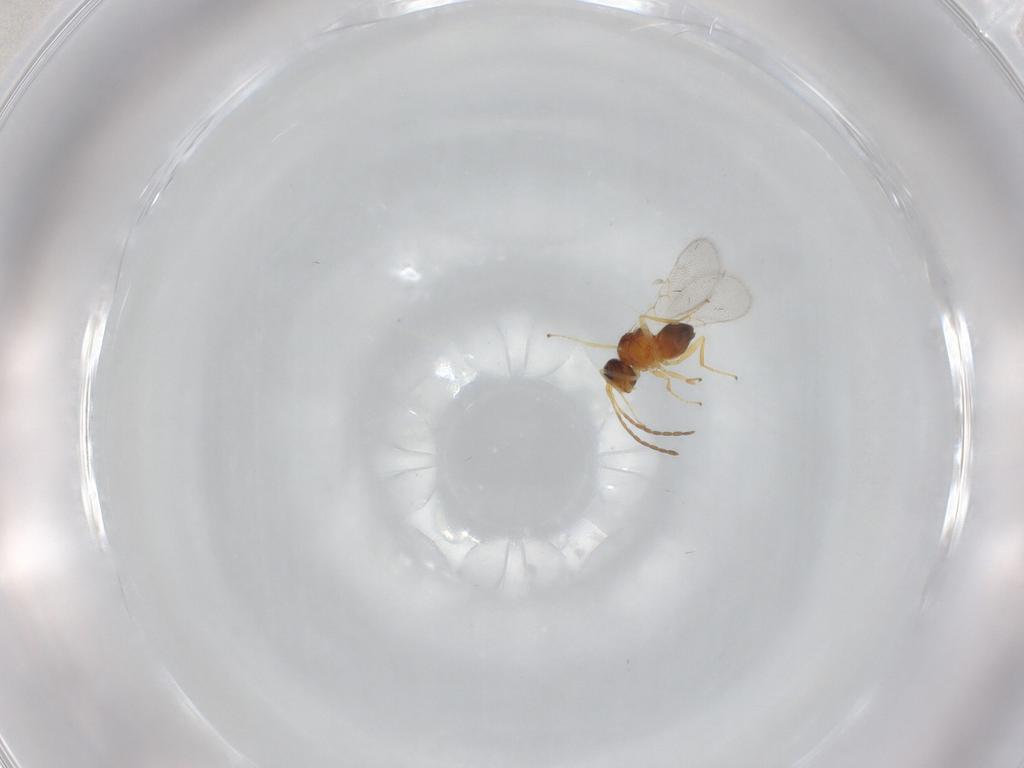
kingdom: Animalia
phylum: Arthropoda
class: Insecta
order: Hymenoptera
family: Figitidae
